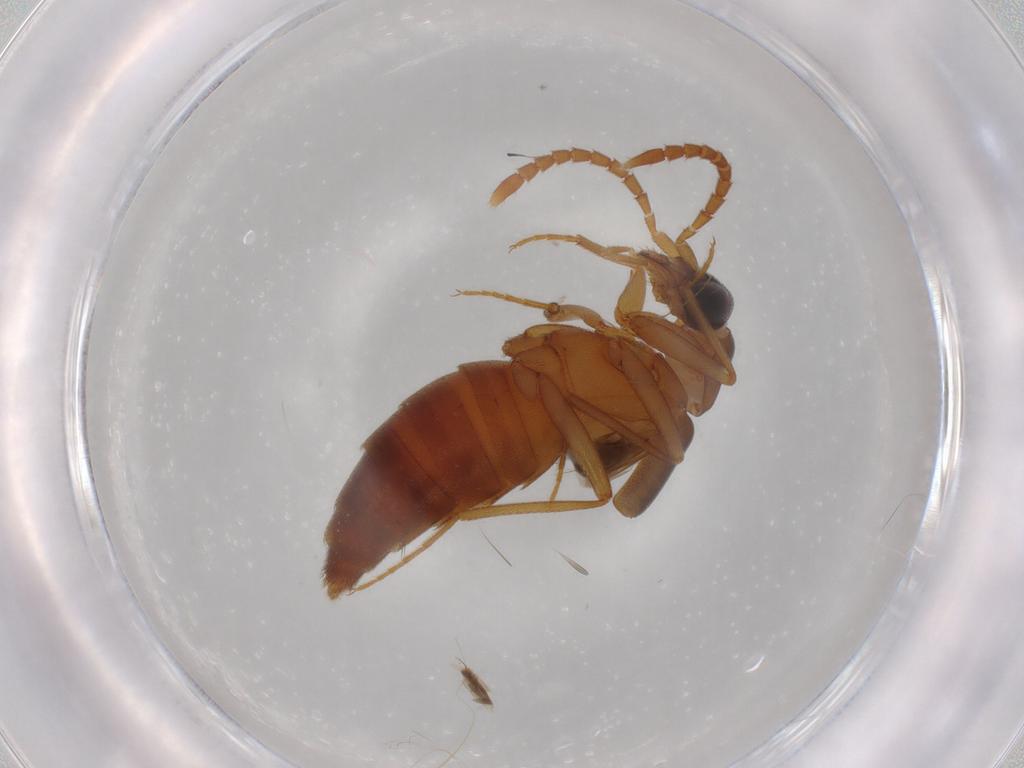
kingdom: Animalia
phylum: Arthropoda
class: Insecta
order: Coleoptera
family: Staphylinidae
